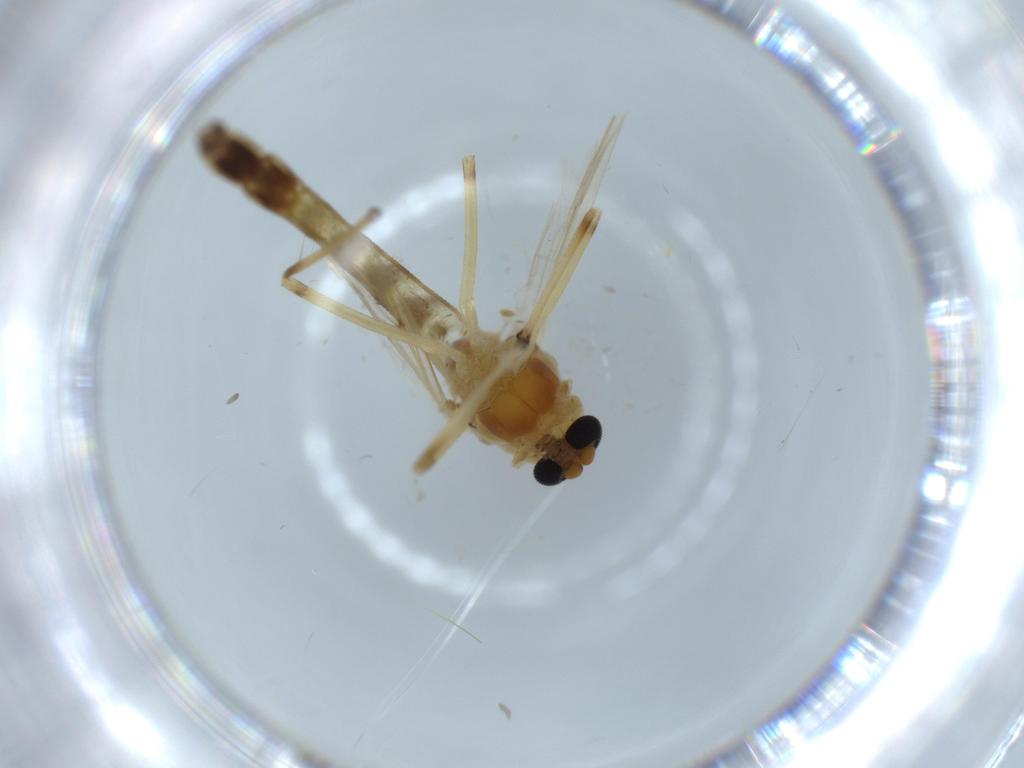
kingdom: Animalia
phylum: Arthropoda
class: Insecta
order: Diptera
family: Chironomidae
